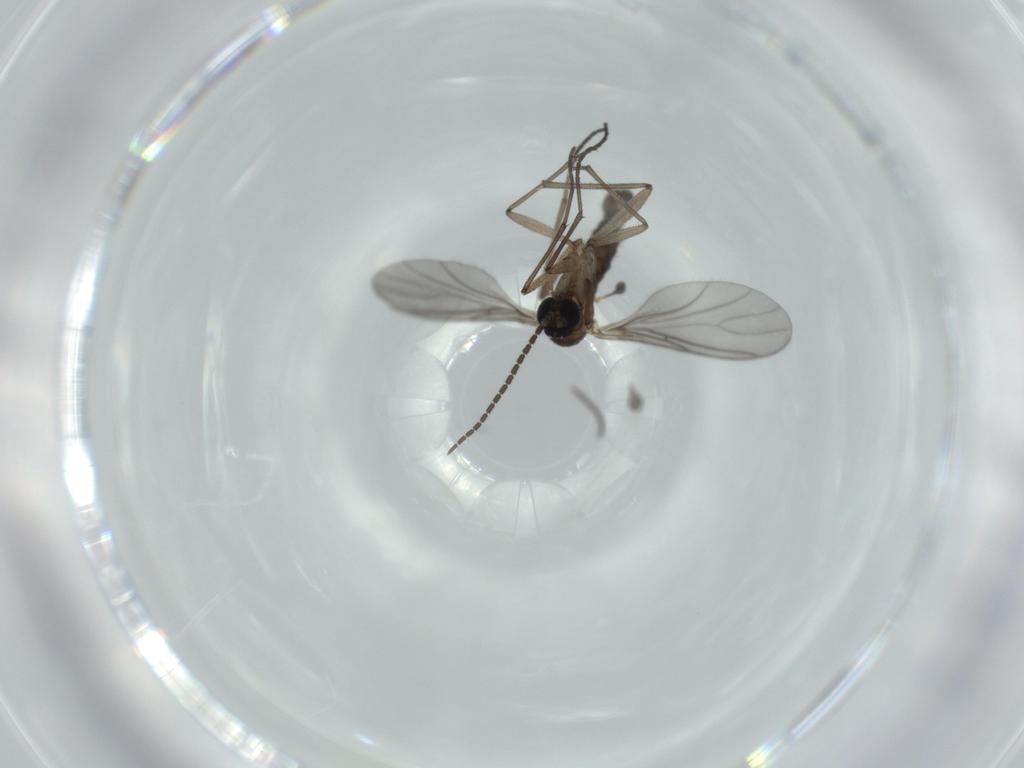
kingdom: Animalia
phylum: Arthropoda
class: Insecta
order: Diptera
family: Sciaridae
